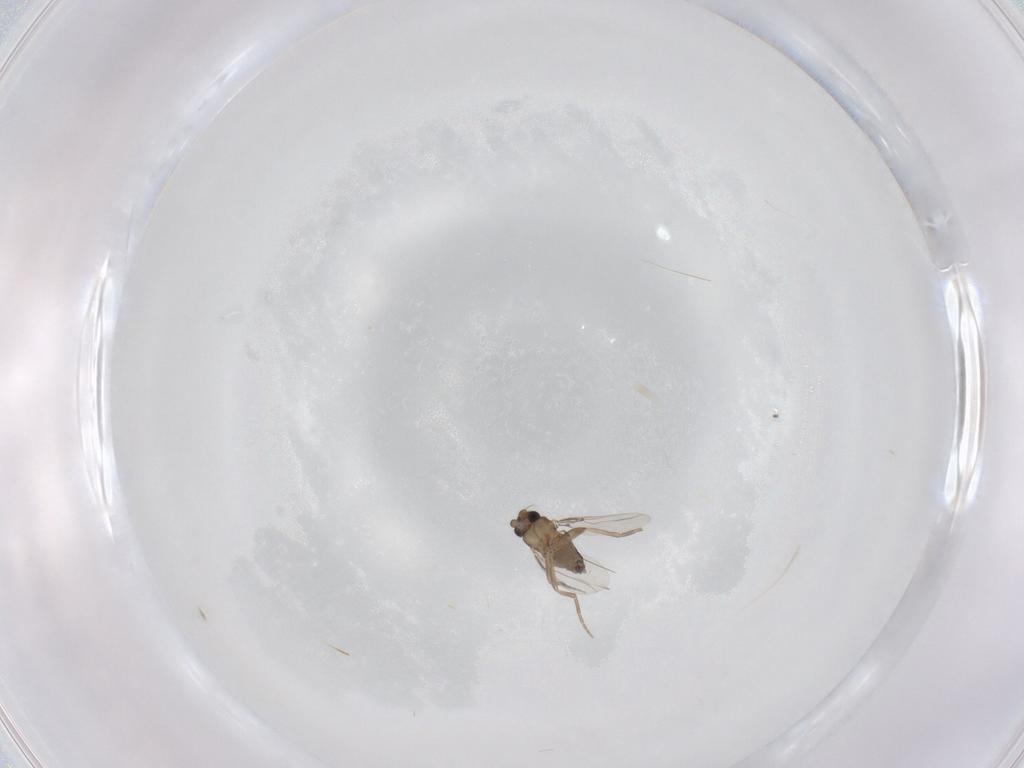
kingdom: Animalia
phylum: Arthropoda
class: Insecta
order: Diptera
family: Phoridae
